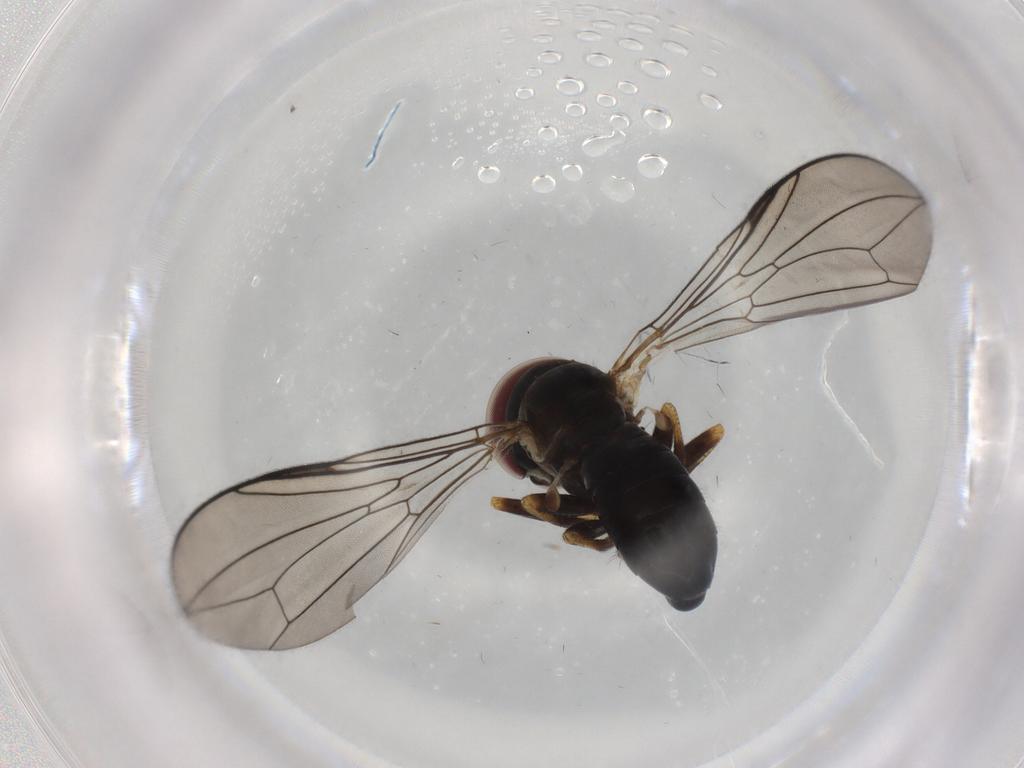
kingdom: Animalia
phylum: Arthropoda
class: Insecta
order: Diptera
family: Pipunculidae
